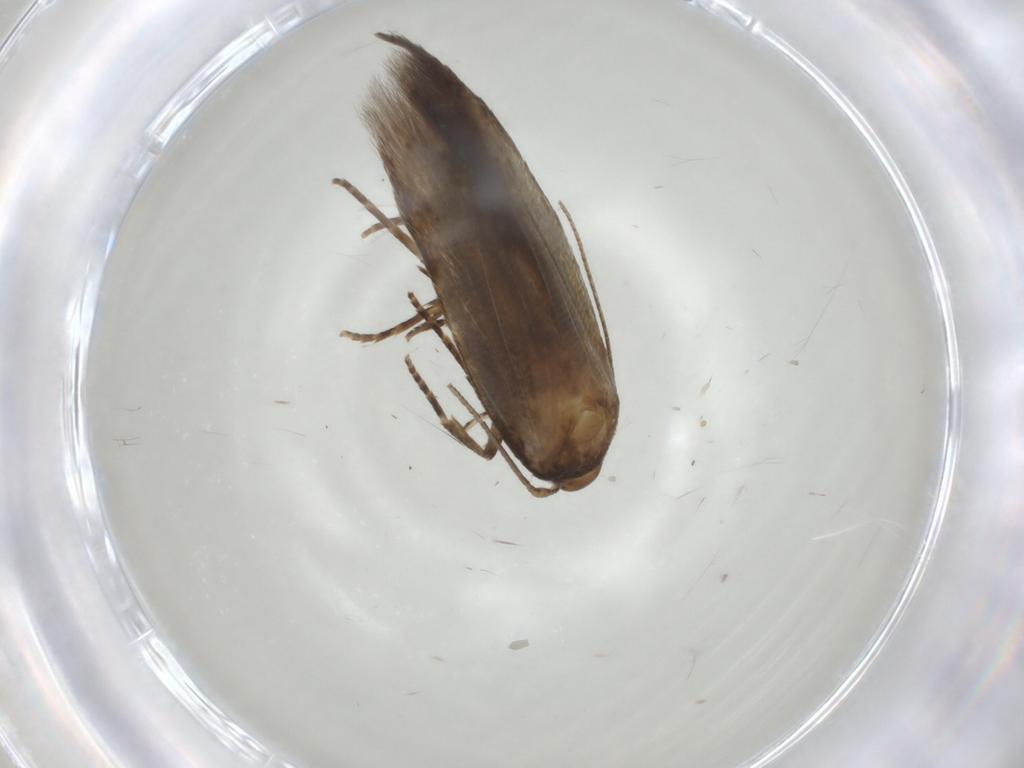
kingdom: Animalia
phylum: Arthropoda
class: Insecta
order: Lepidoptera
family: Cosmopterigidae
